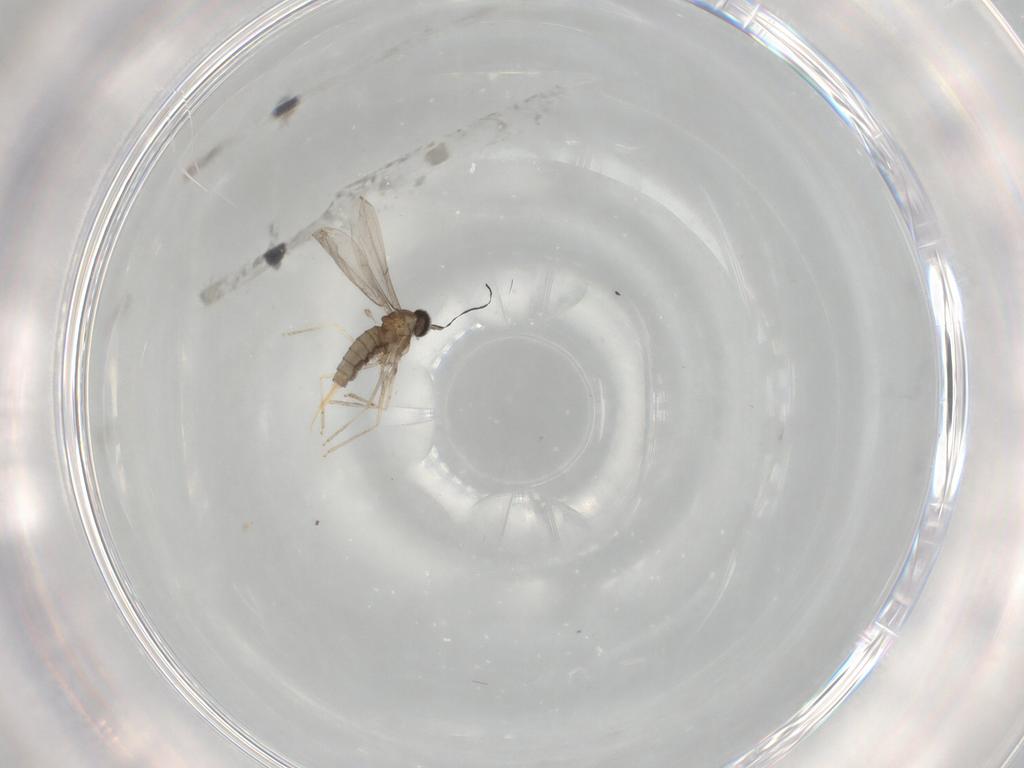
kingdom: Animalia
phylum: Arthropoda
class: Insecta
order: Diptera
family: Cecidomyiidae
